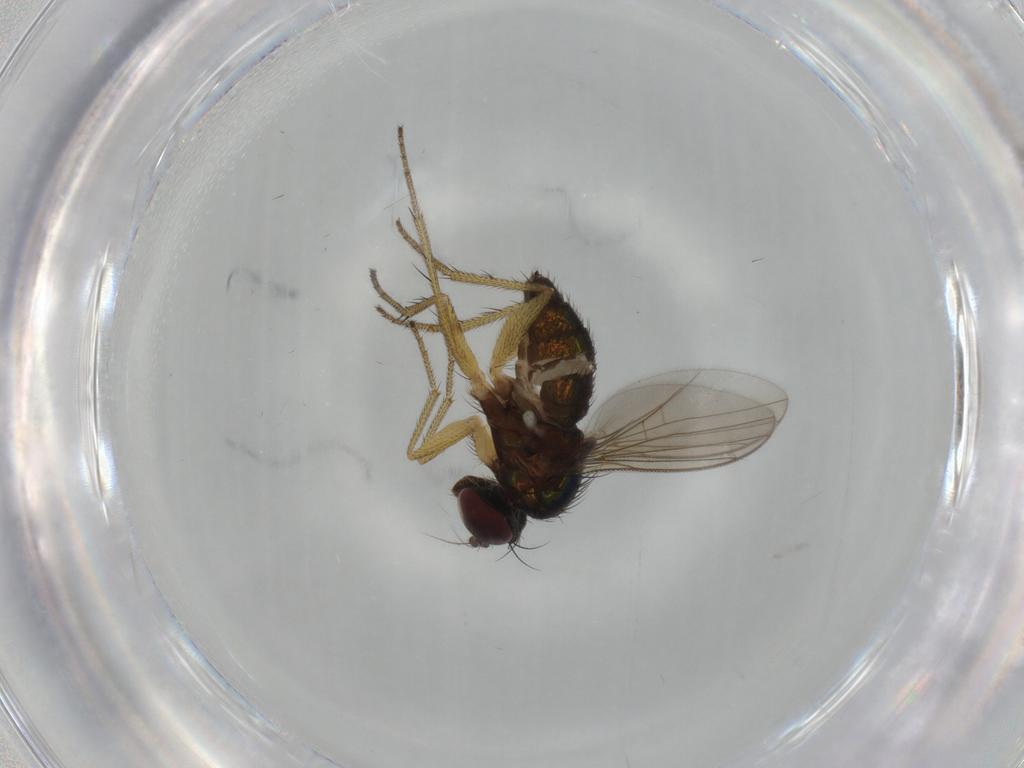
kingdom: Animalia
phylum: Arthropoda
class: Insecta
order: Diptera
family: Dolichopodidae
